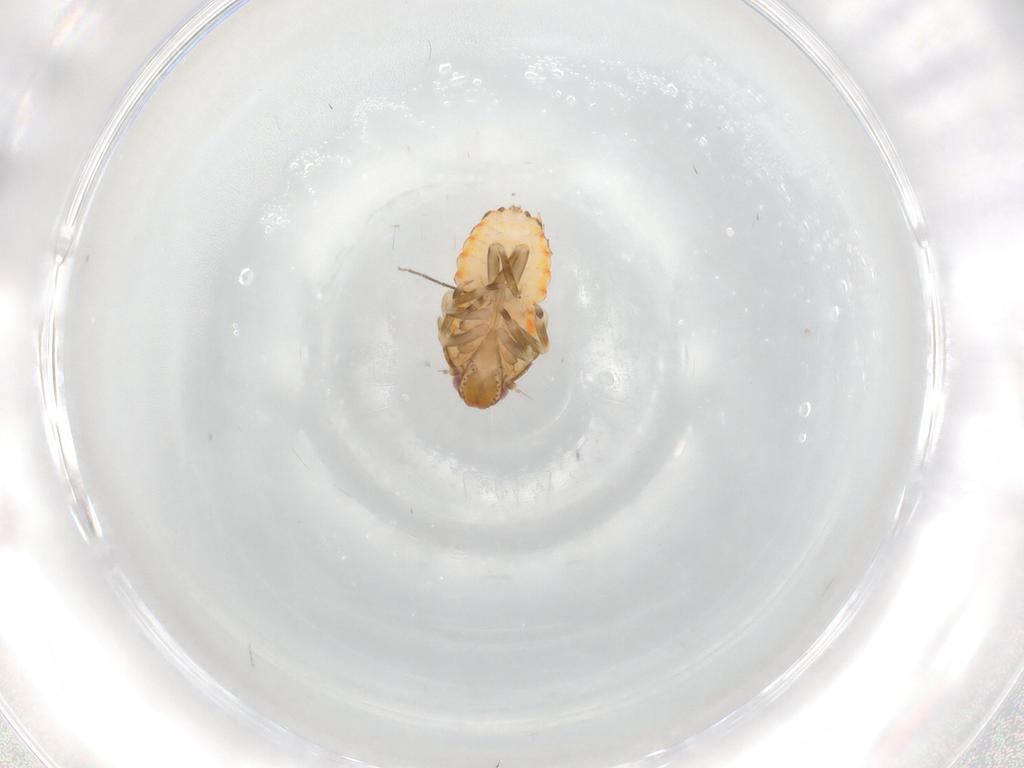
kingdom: Animalia
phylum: Arthropoda
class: Insecta
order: Hemiptera
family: Flatidae
